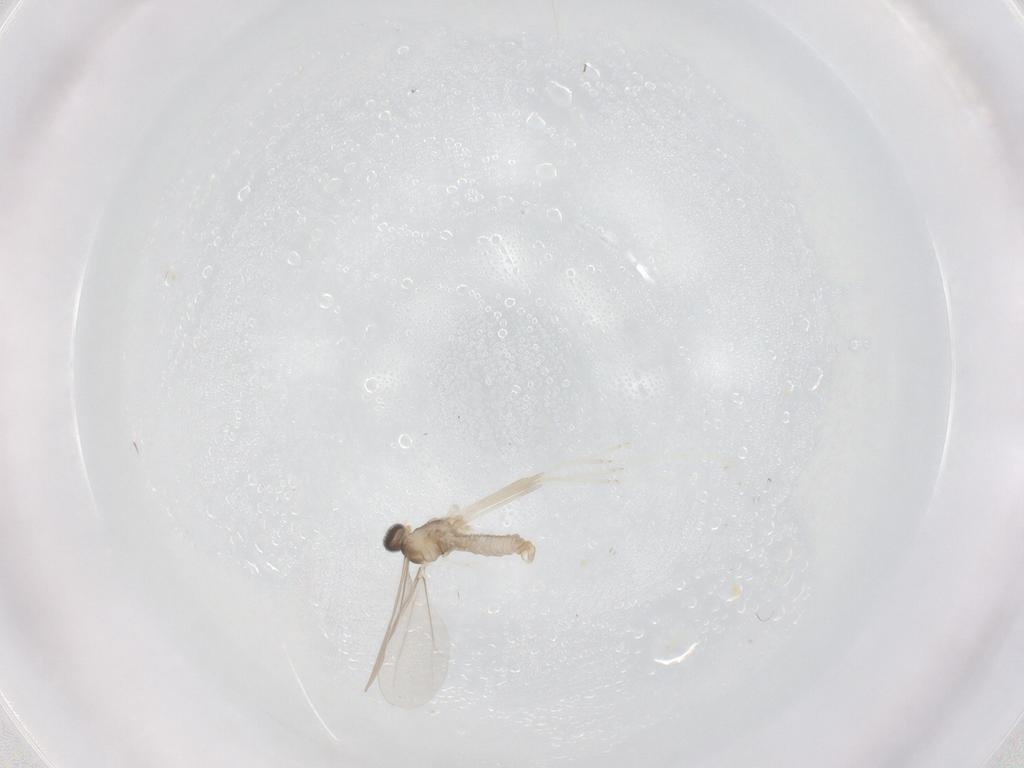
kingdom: Animalia
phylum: Arthropoda
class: Insecta
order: Diptera
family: Cecidomyiidae
